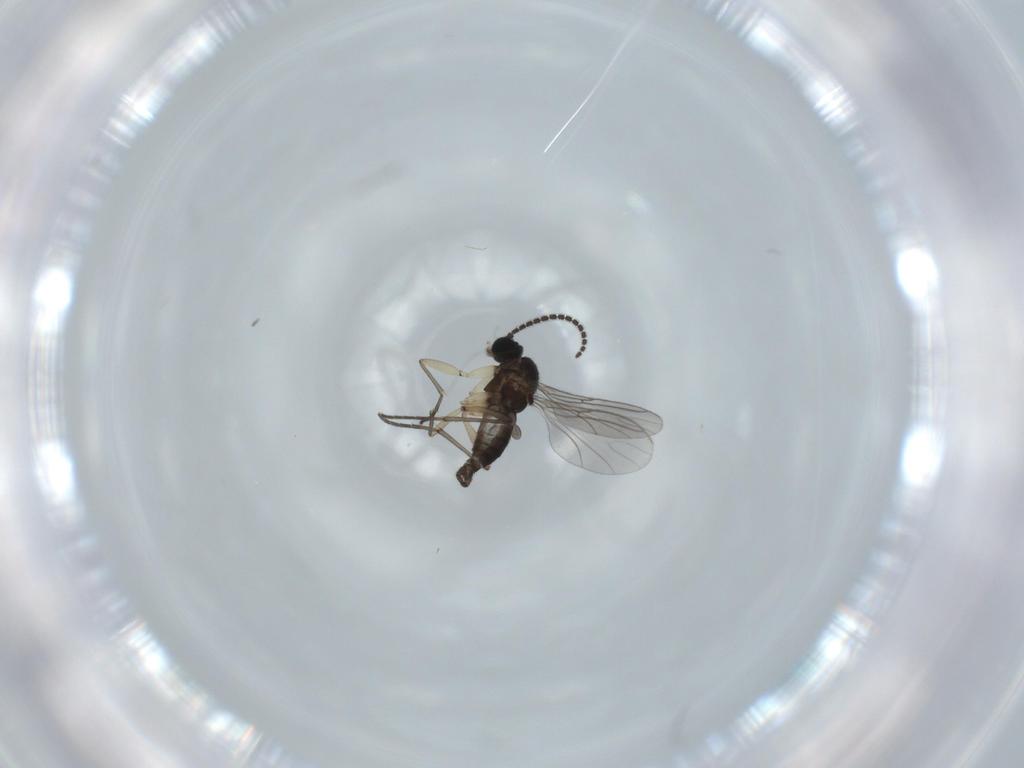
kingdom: Animalia
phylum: Arthropoda
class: Insecta
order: Diptera
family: Sciaridae
